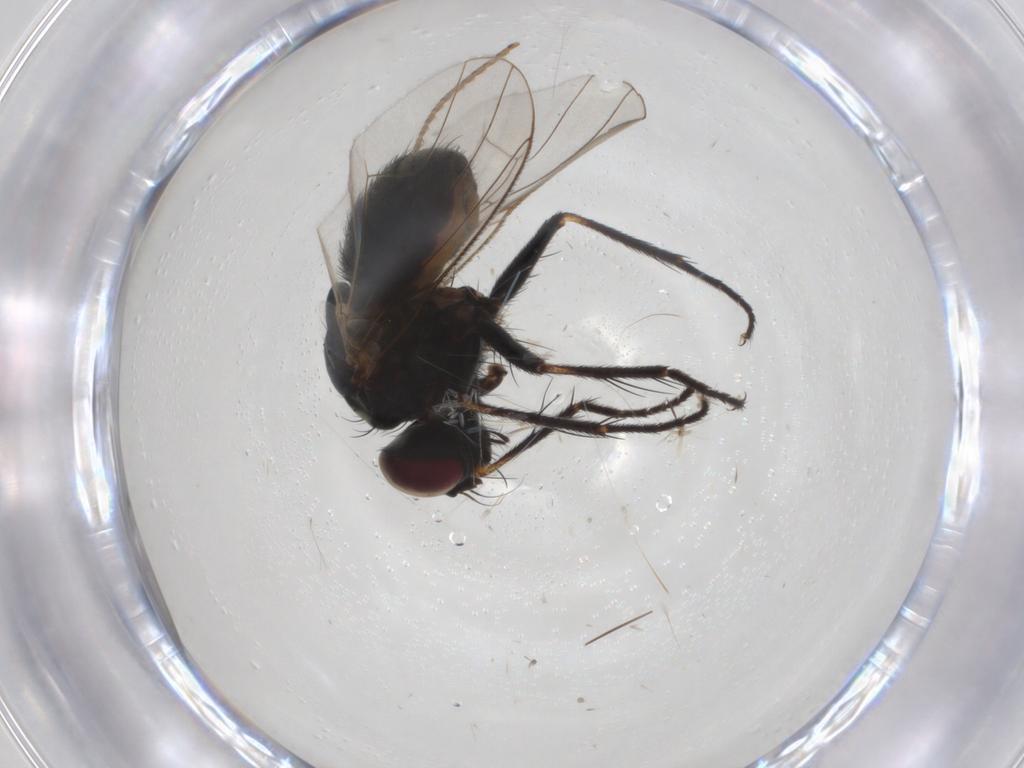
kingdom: Animalia
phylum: Arthropoda
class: Insecta
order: Diptera
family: Muscidae
